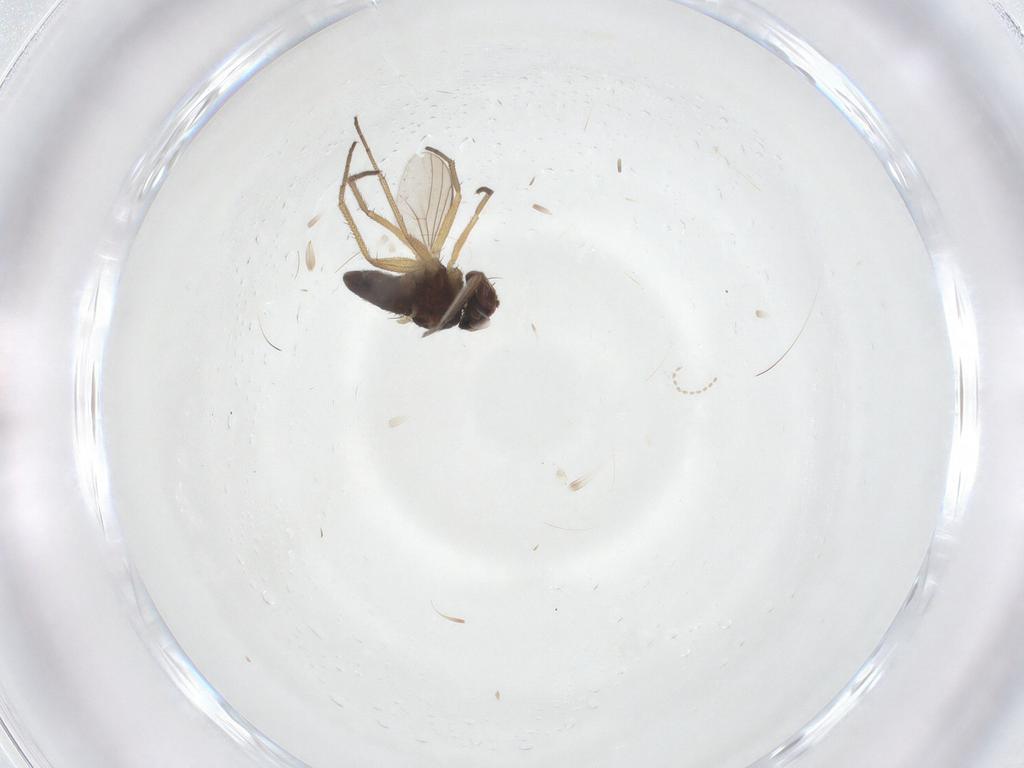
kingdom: Animalia
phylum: Arthropoda
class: Insecta
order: Diptera
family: Dolichopodidae
